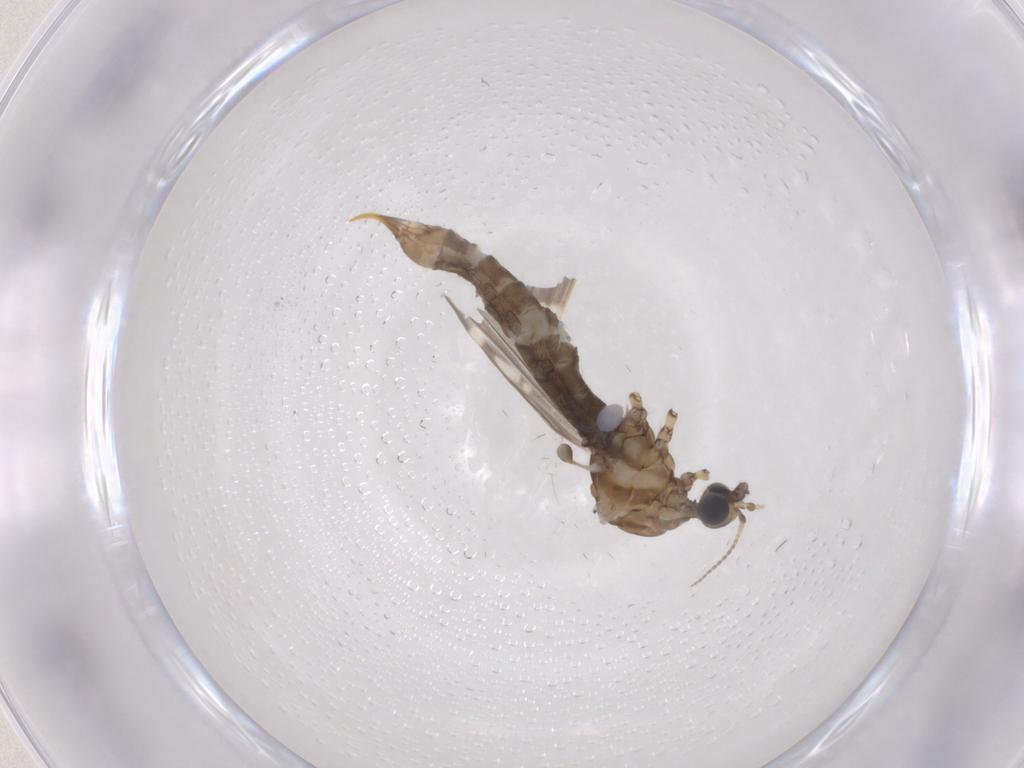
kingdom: Animalia
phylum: Arthropoda
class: Insecta
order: Diptera
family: Limoniidae
